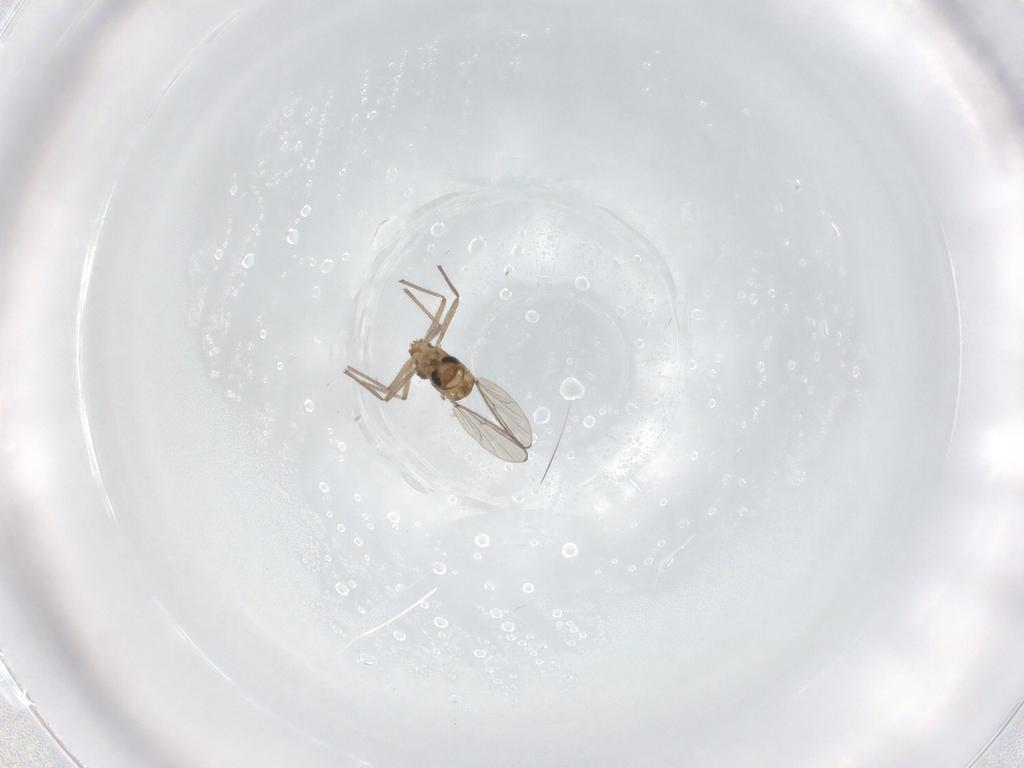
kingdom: Animalia
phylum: Arthropoda
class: Insecta
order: Diptera
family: Chironomidae
